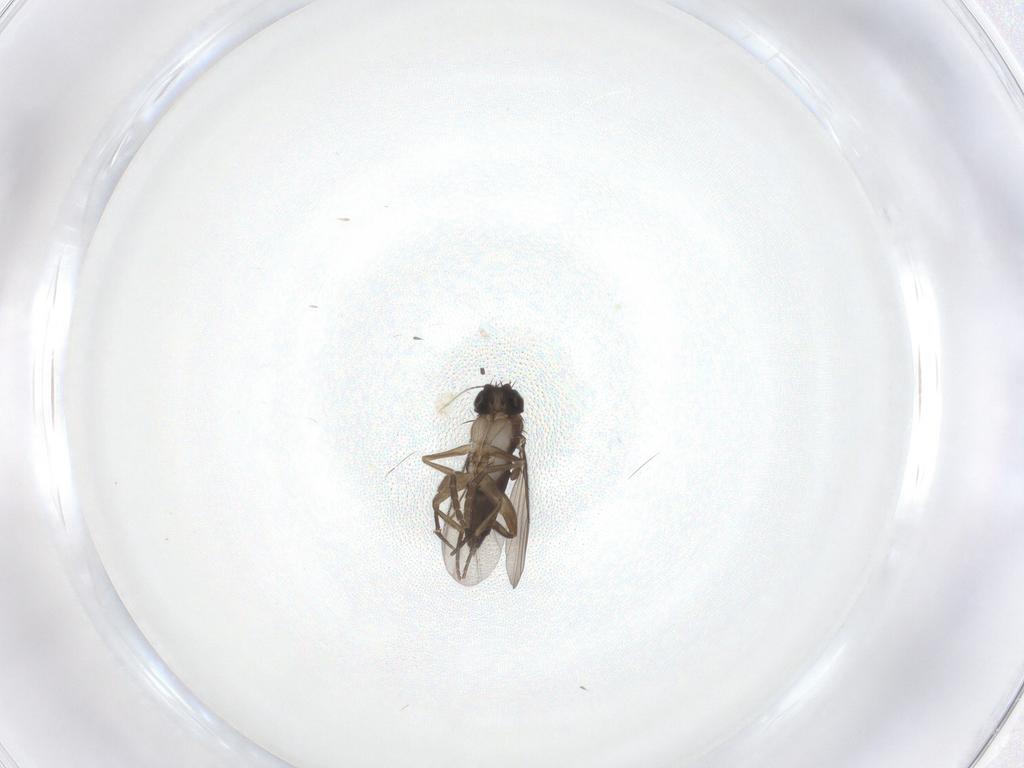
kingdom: Animalia
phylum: Arthropoda
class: Insecta
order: Diptera
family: Phoridae
